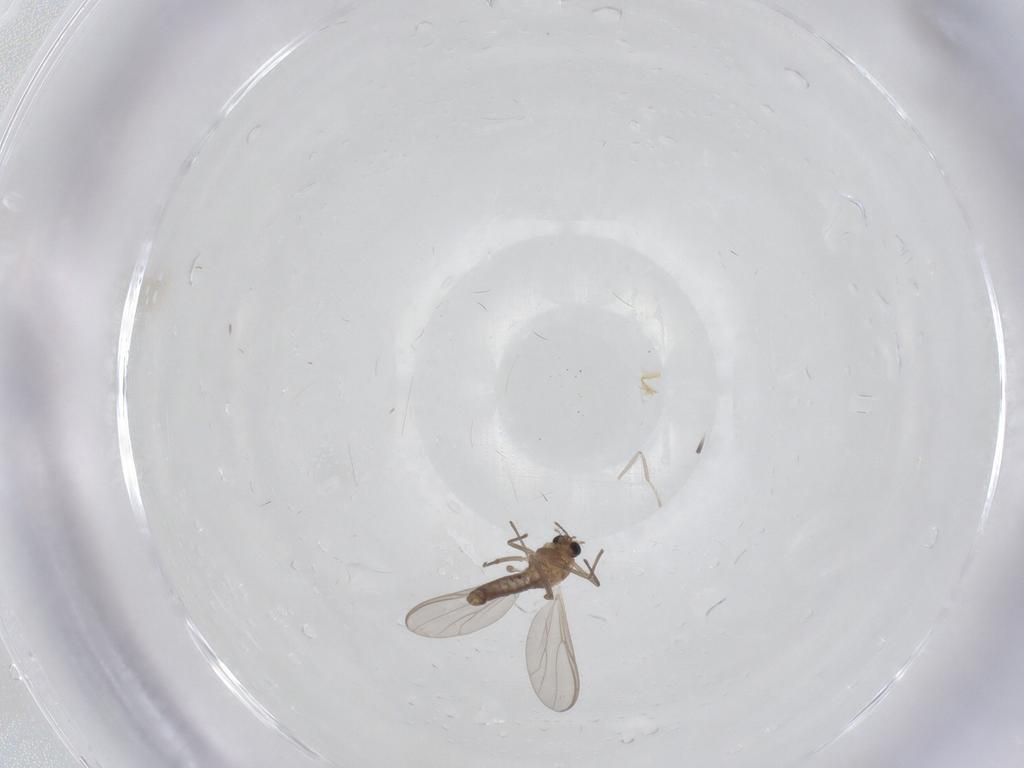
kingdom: Animalia
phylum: Arthropoda
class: Insecta
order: Diptera
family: Chironomidae
